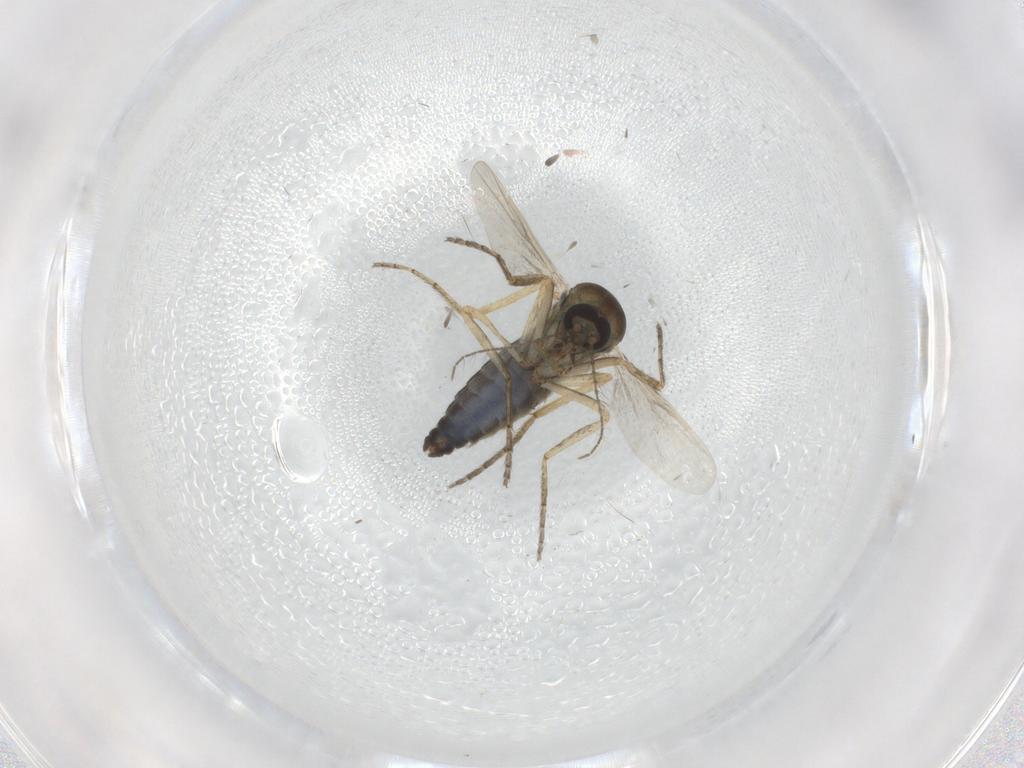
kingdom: Animalia
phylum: Arthropoda
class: Insecta
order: Diptera
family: Ceratopogonidae
